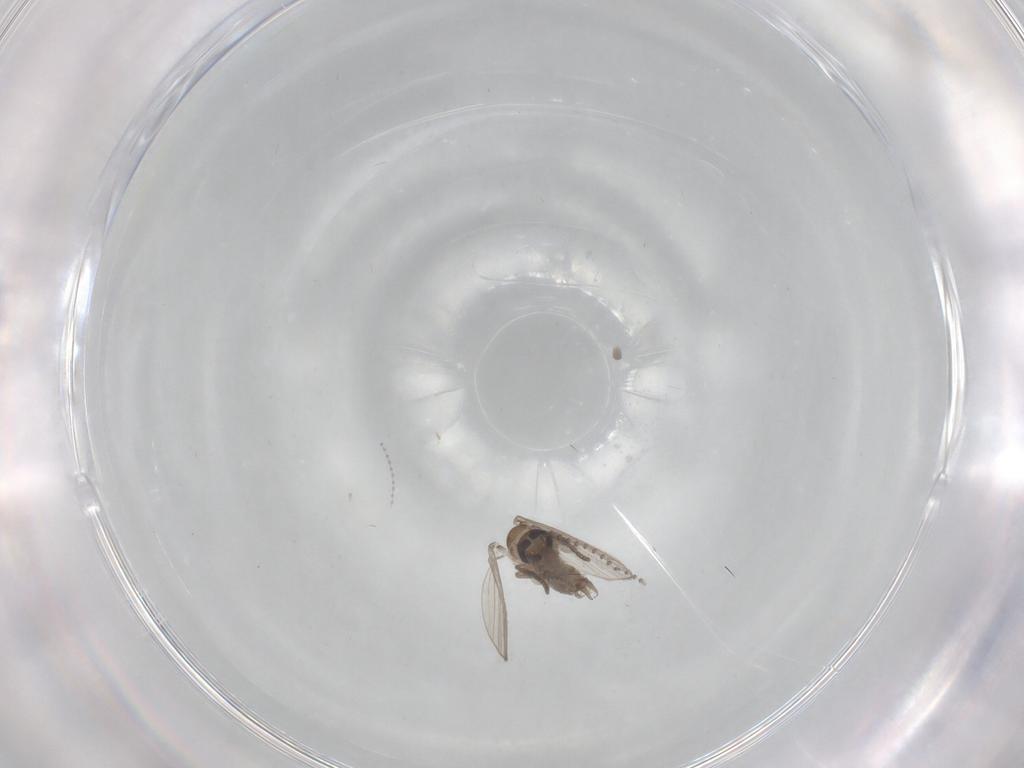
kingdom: Animalia
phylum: Arthropoda
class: Insecta
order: Diptera
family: Psychodidae
